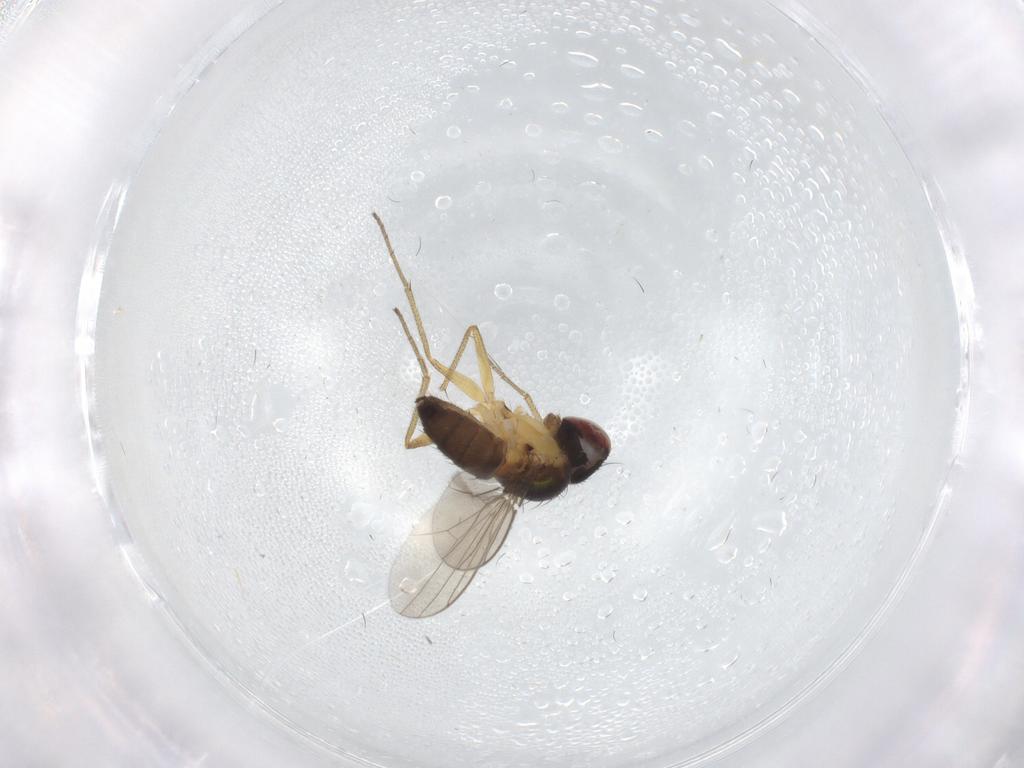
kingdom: Animalia
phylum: Arthropoda
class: Insecta
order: Diptera
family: Dolichopodidae
